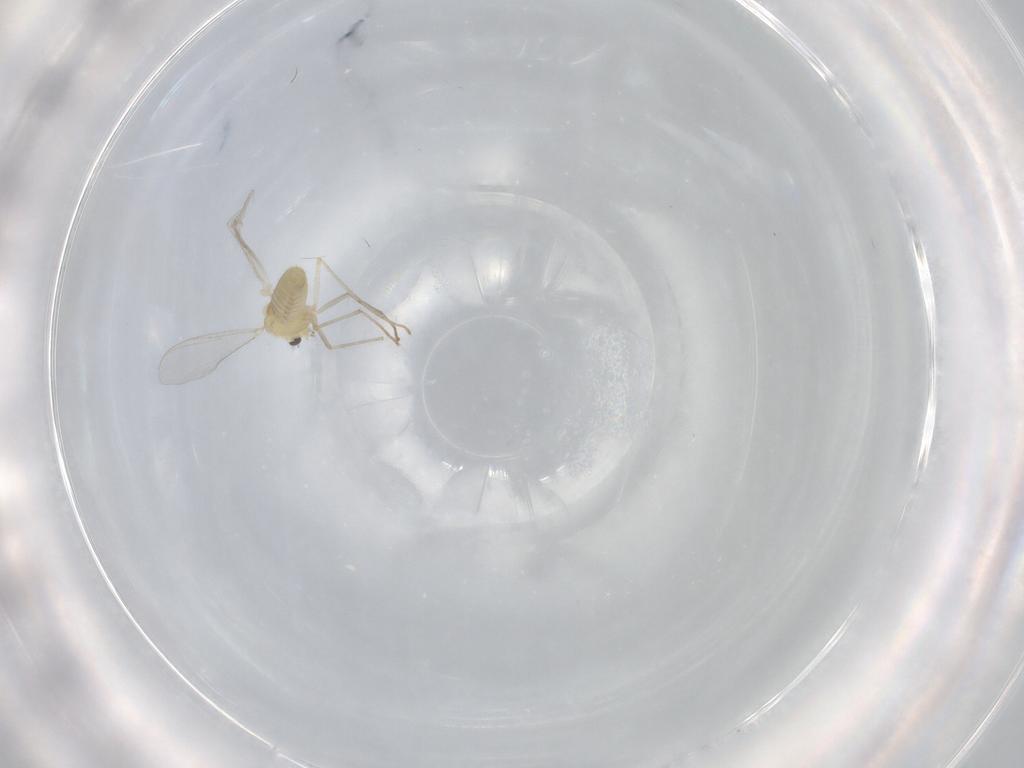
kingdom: Animalia
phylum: Arthropoda
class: Insecta
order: Diptera
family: Chironomidae
